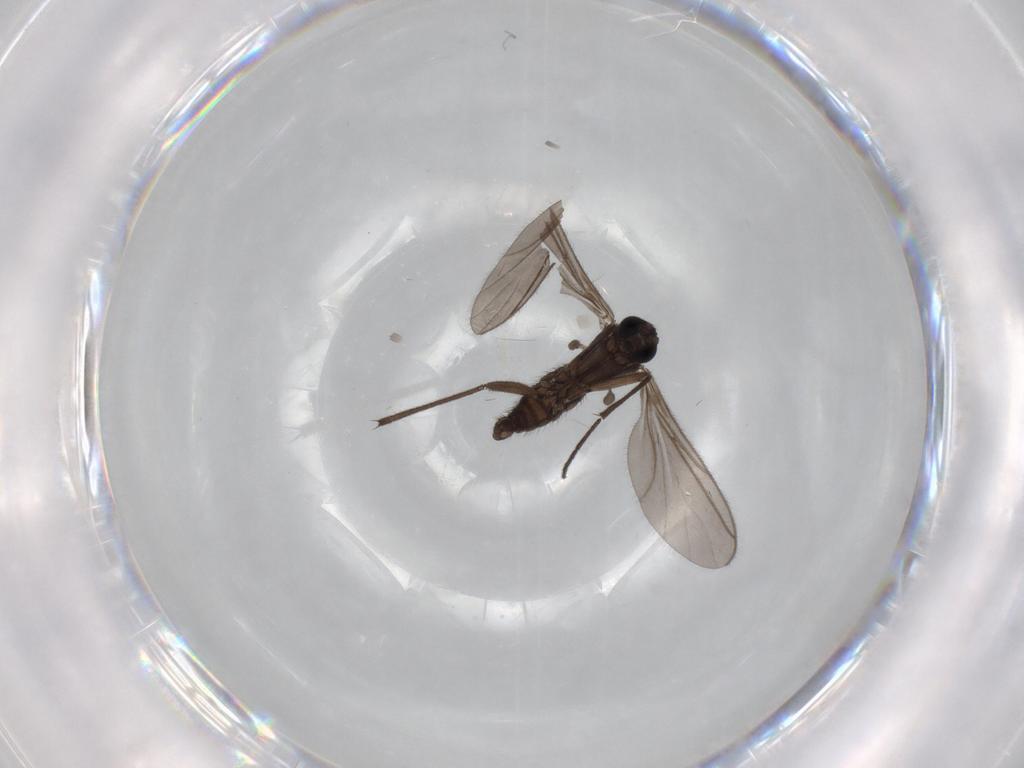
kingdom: Animalia
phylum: Arthropoda
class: Insecta
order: Diptera
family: Sciaridae
